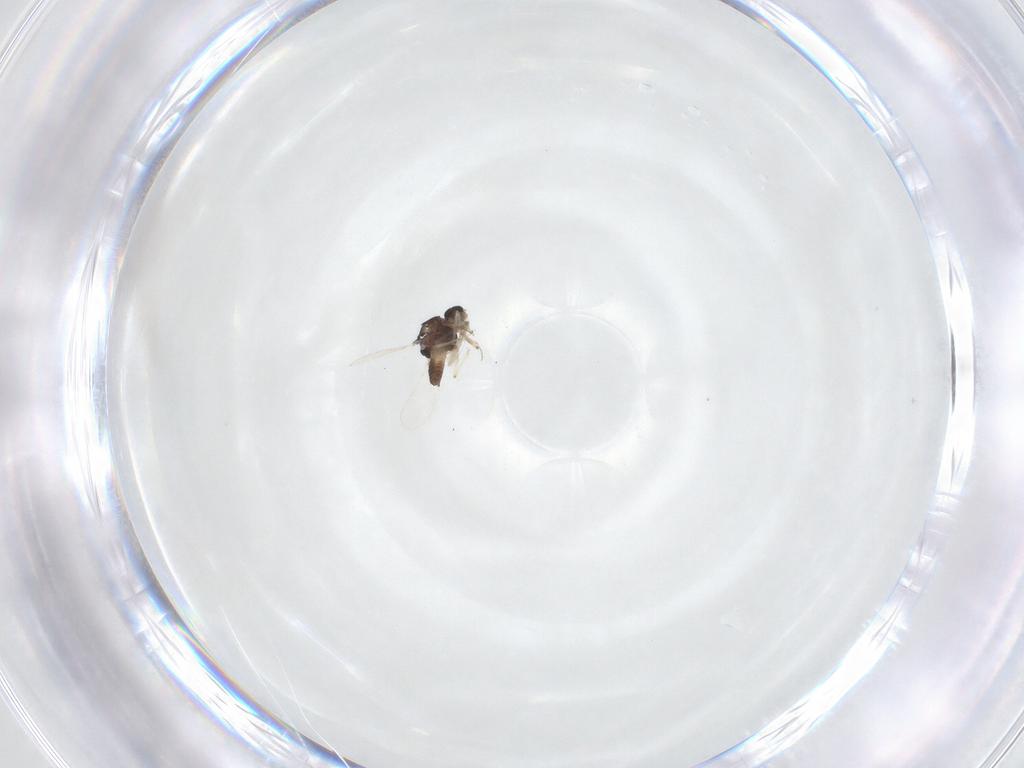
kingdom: Animalia
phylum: Arthropoda
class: Insecta
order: Diptera
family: Chironomidae
